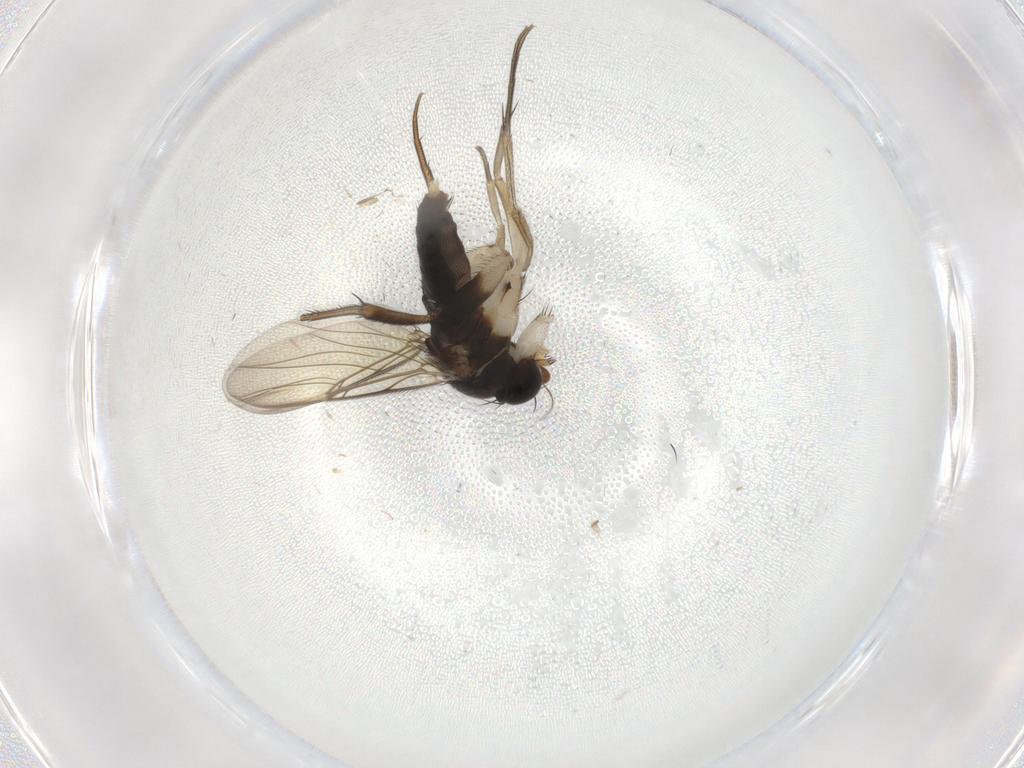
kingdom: Animalia
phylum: Arthropoda
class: Insecta
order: Diptera
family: Phoridae
